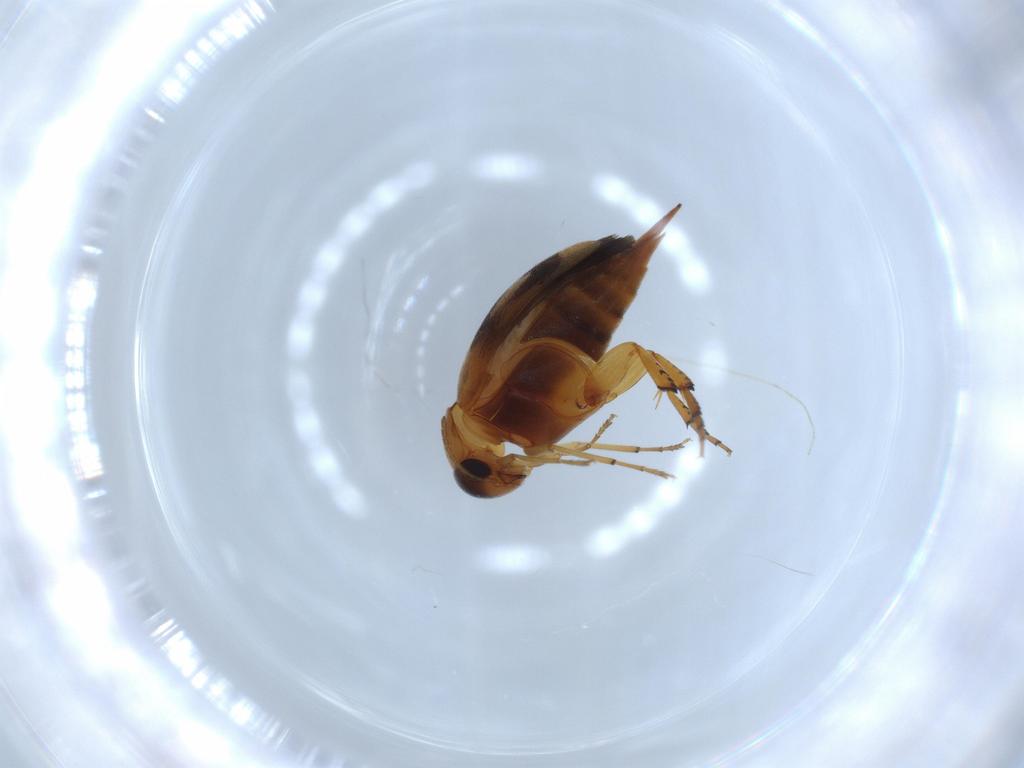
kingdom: Animalia
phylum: Arthropoda
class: Insecta
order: Coleoptera
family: Mordellidae
